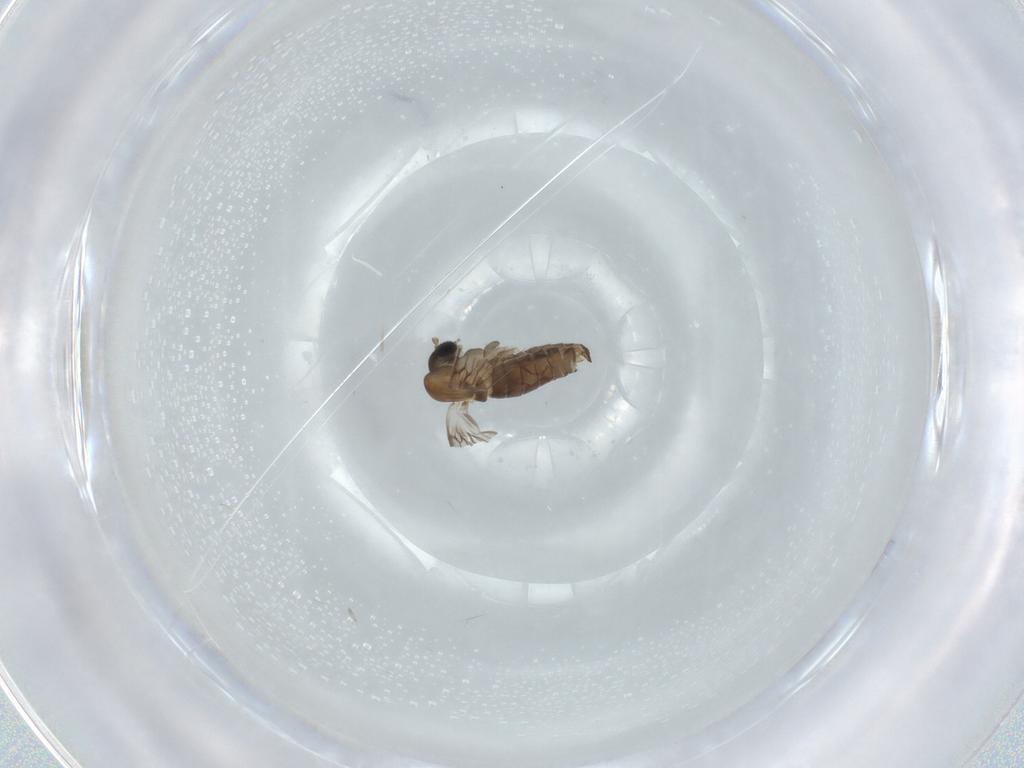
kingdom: Animalia
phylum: Arthropoda
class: Insecta
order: Diptera
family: Psychodidae
